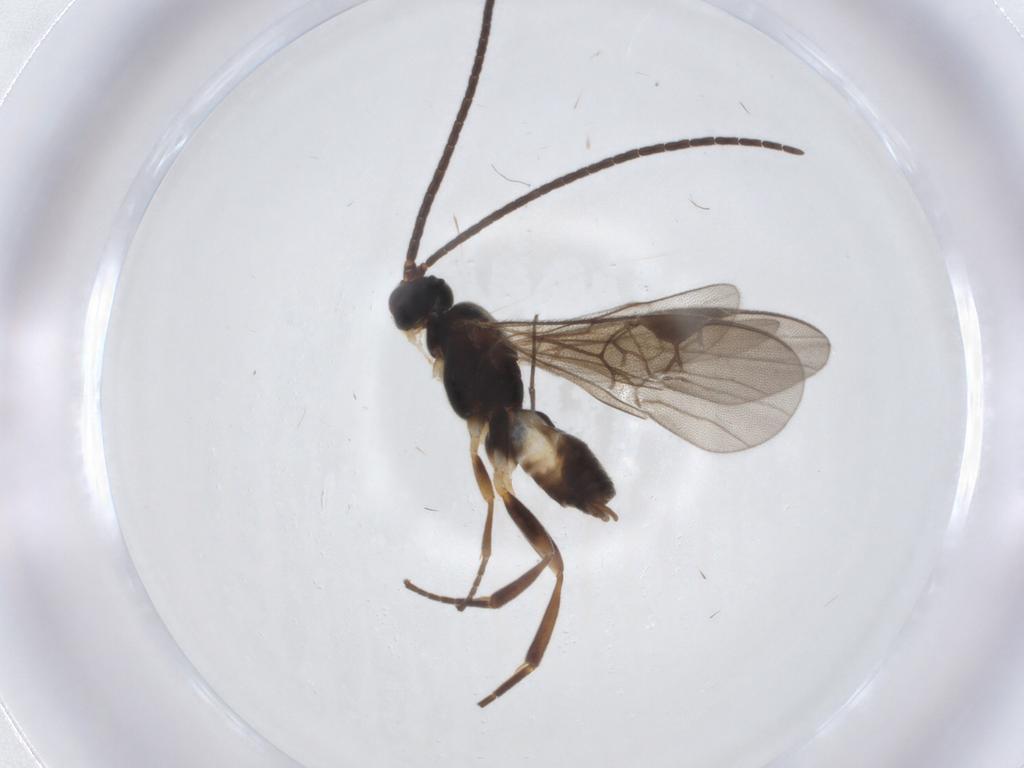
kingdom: Animalia
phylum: Arthropoda
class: Insecta
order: Hymenoptera
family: Braconidae
